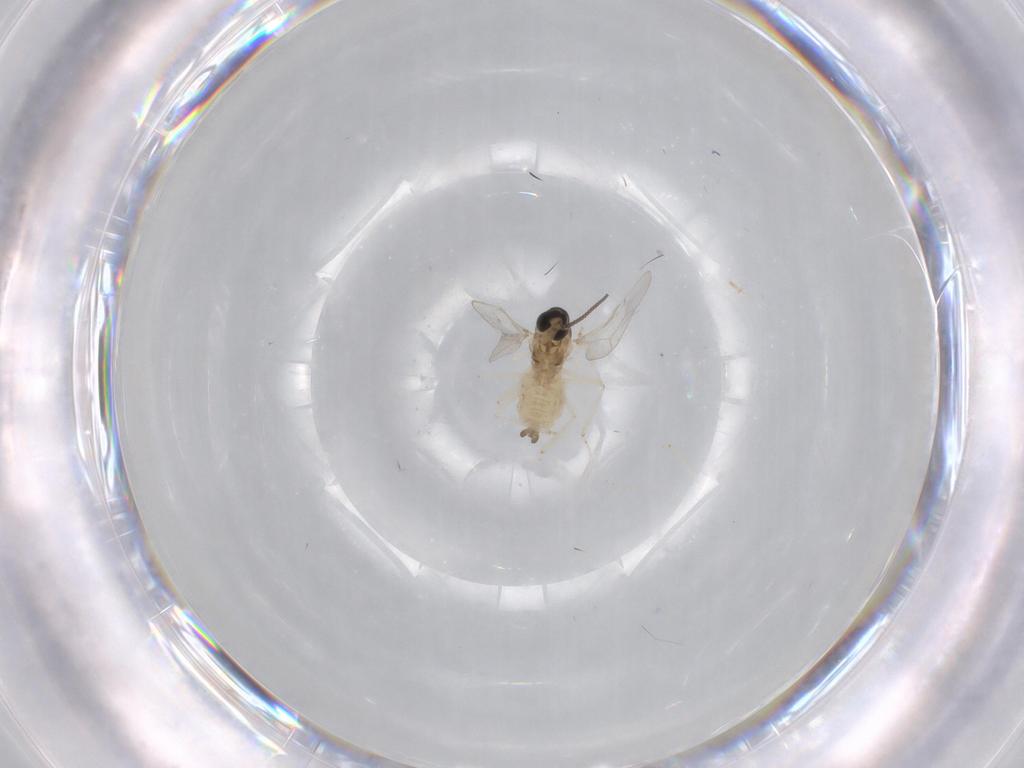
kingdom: Animalia
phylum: Arthropoda
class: Insecta
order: Diptera
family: Cecidomyiidae
